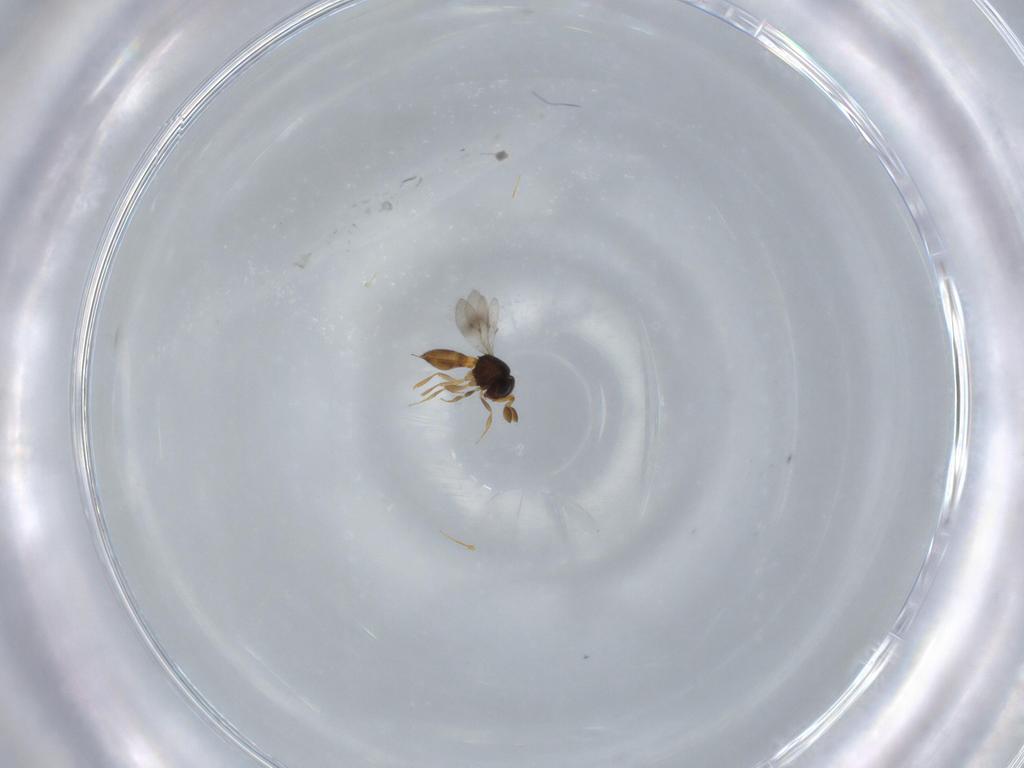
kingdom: Animalia
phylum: Arthropoda
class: Insecta
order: Hymenoptera
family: Scelionidae
